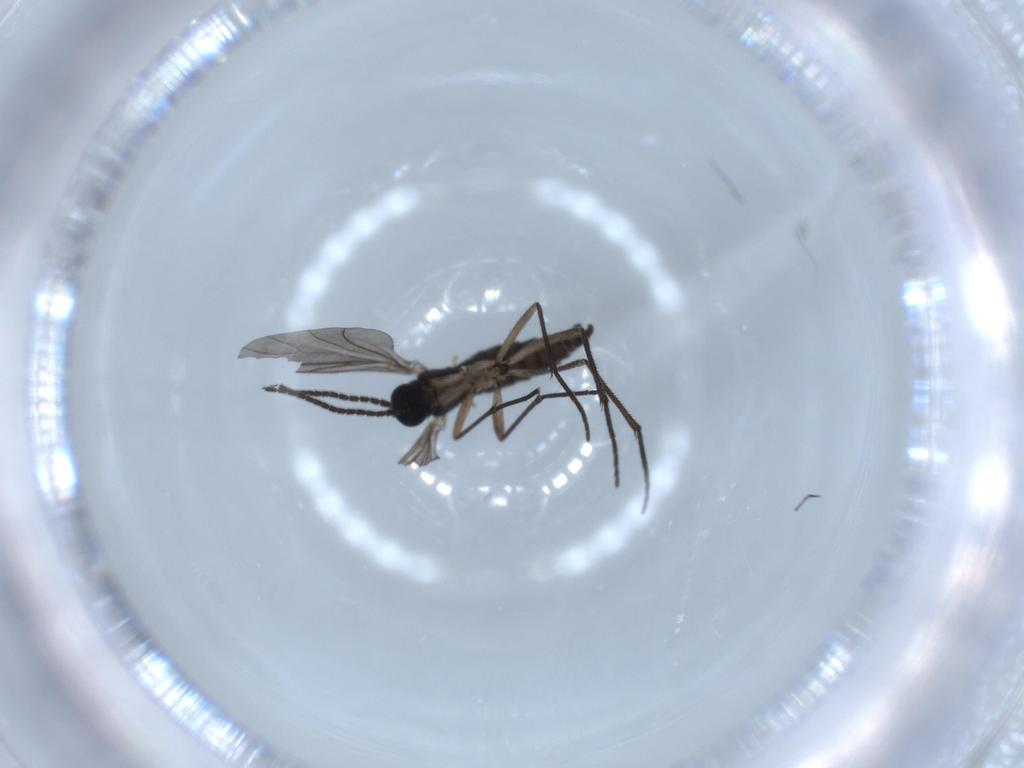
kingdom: Animalia
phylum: Arthropoda
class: Insecta
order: Diptera
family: Sciaridae
